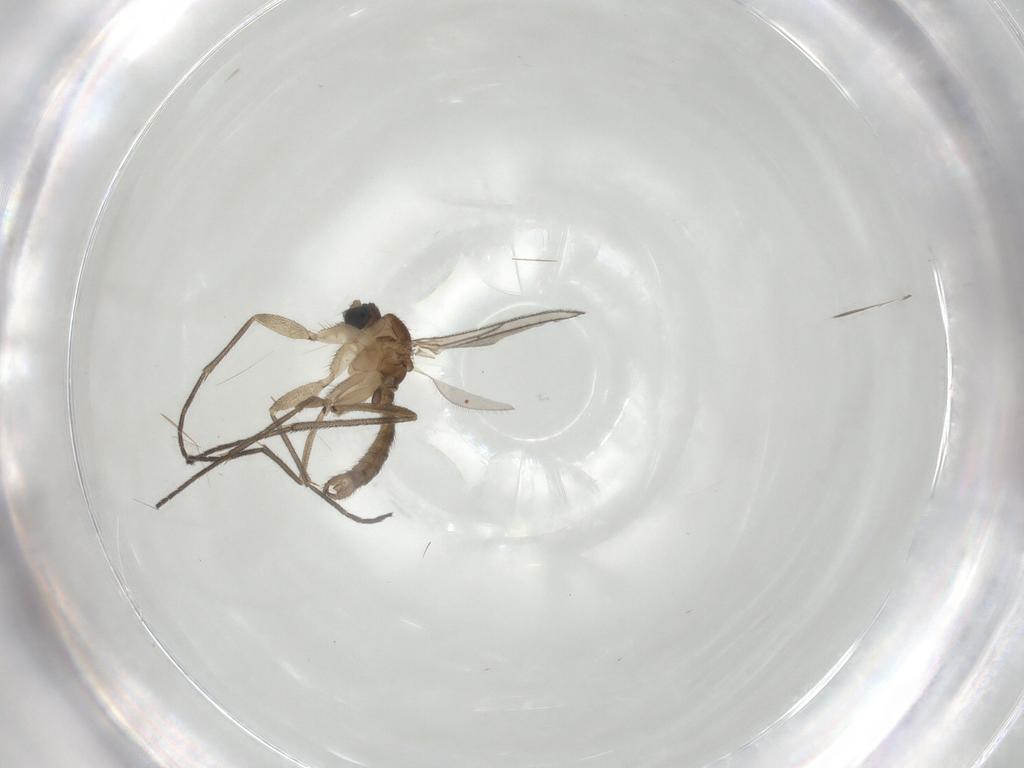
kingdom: Animalia
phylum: Arthropoda
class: Insecta
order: Diptera
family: Sciaridae
